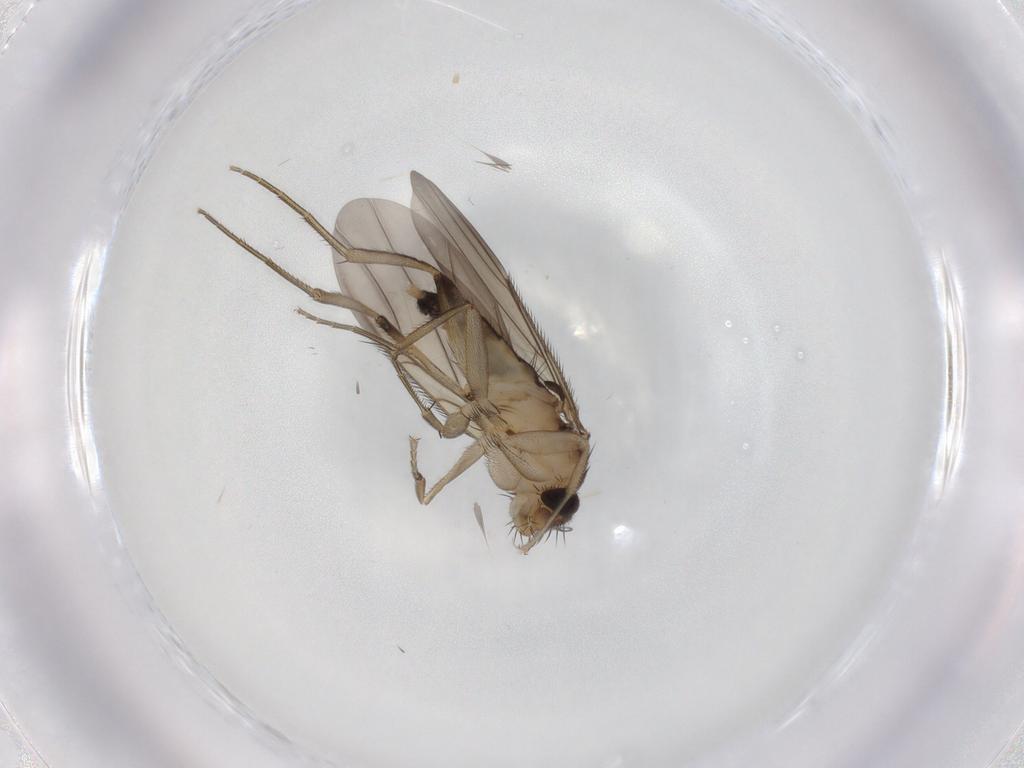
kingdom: Animalia
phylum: Arthropoda
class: Insecta
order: Diptera
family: Phoridae
